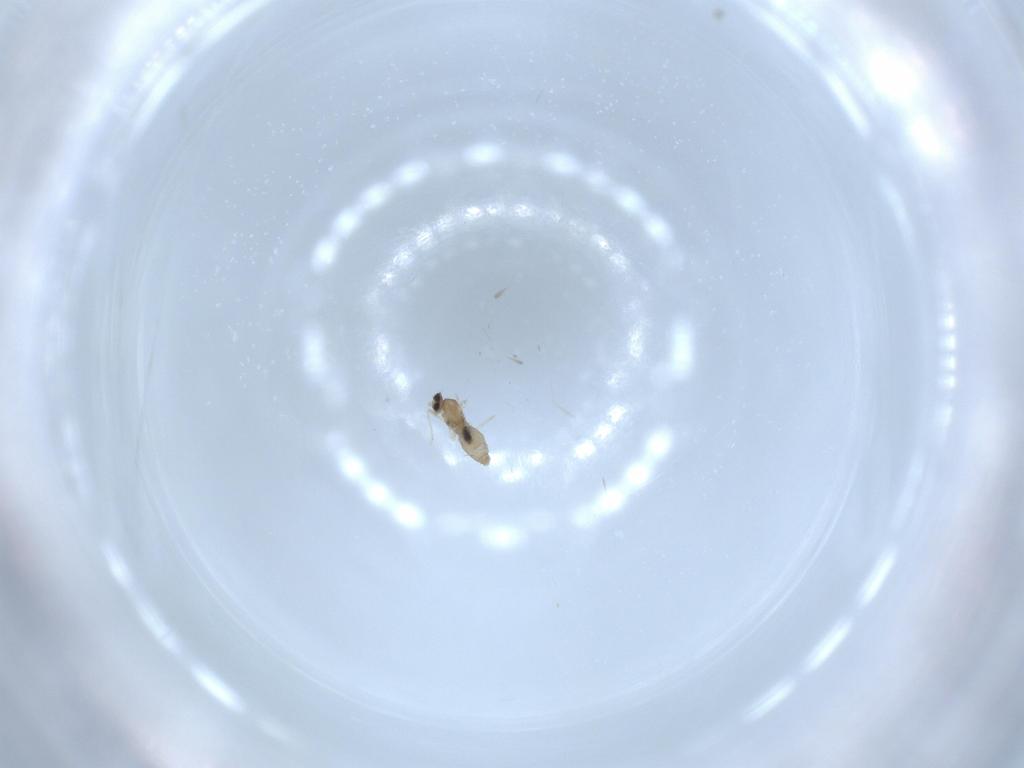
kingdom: Animalia
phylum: Arthropoda
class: Insecta
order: Diptera
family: Cecidomyiidae
